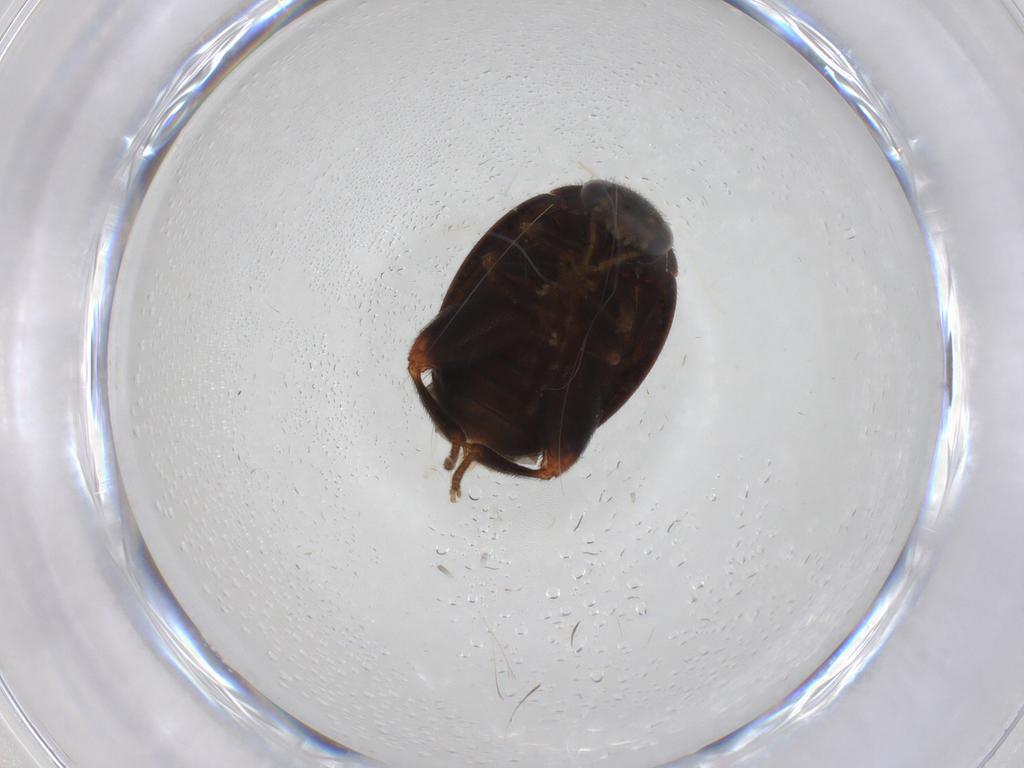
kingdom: Animalia
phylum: Arthropoda
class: Insecta
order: Coleoptera
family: Scirtidae
